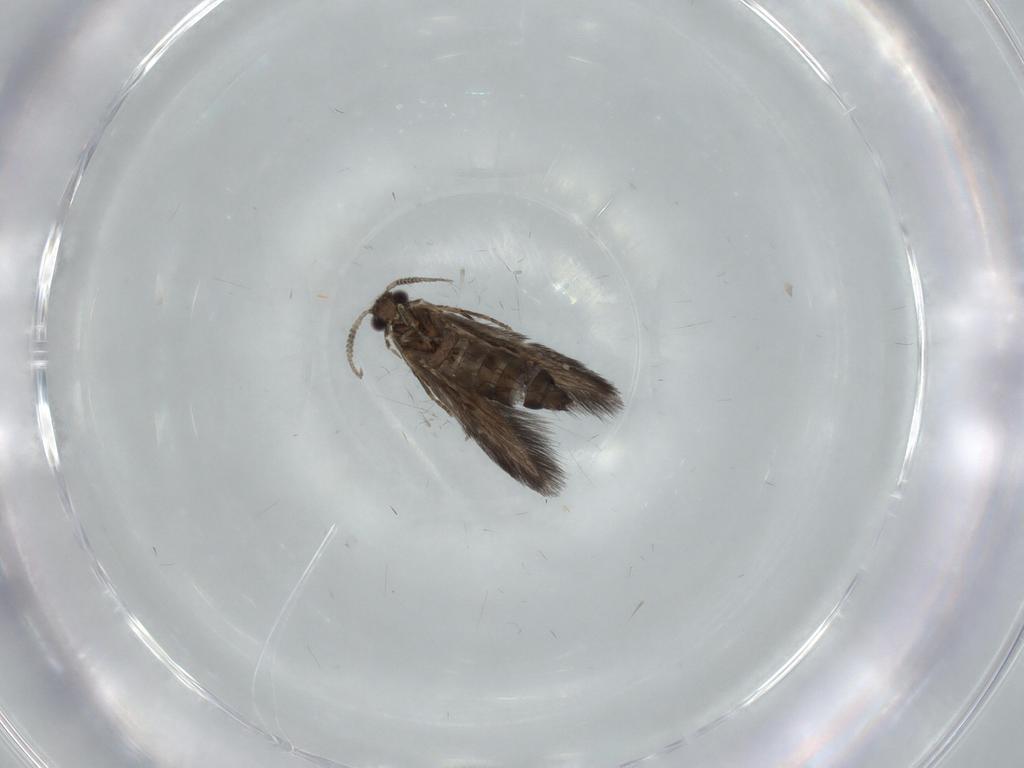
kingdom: Animalia
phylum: Arthropoda
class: Insecta
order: Trichoptera
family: Hydroptilidae
